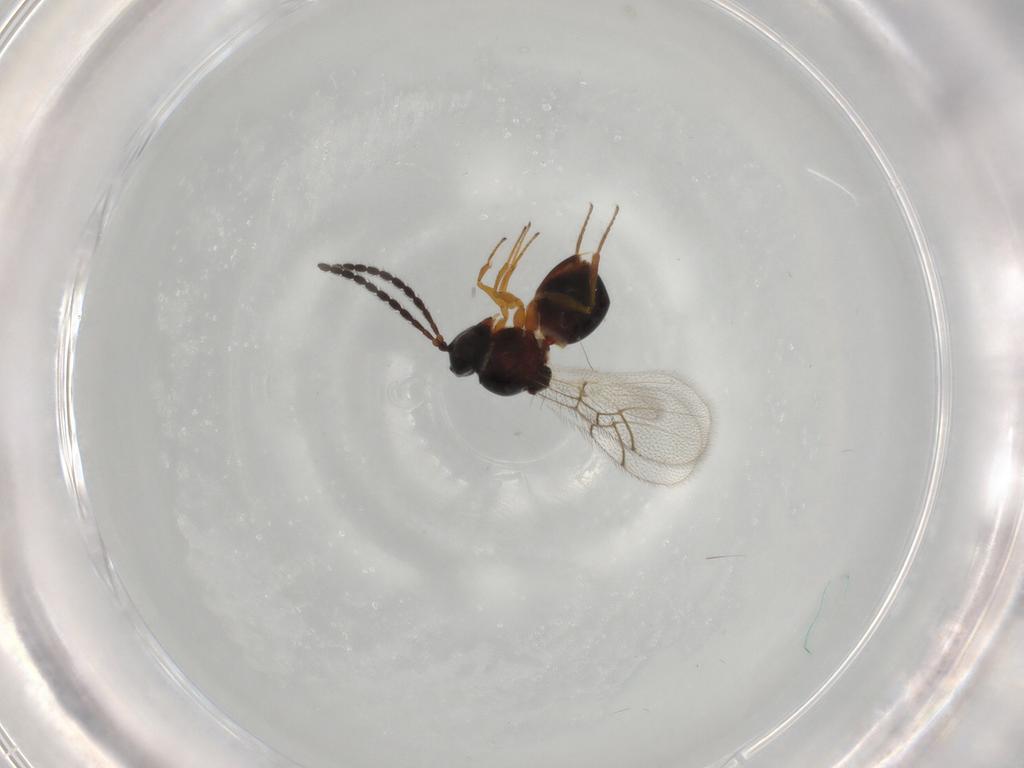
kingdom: Animalia
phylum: Arthropoda
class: Insecta
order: Hymenoptera
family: Figitidae
